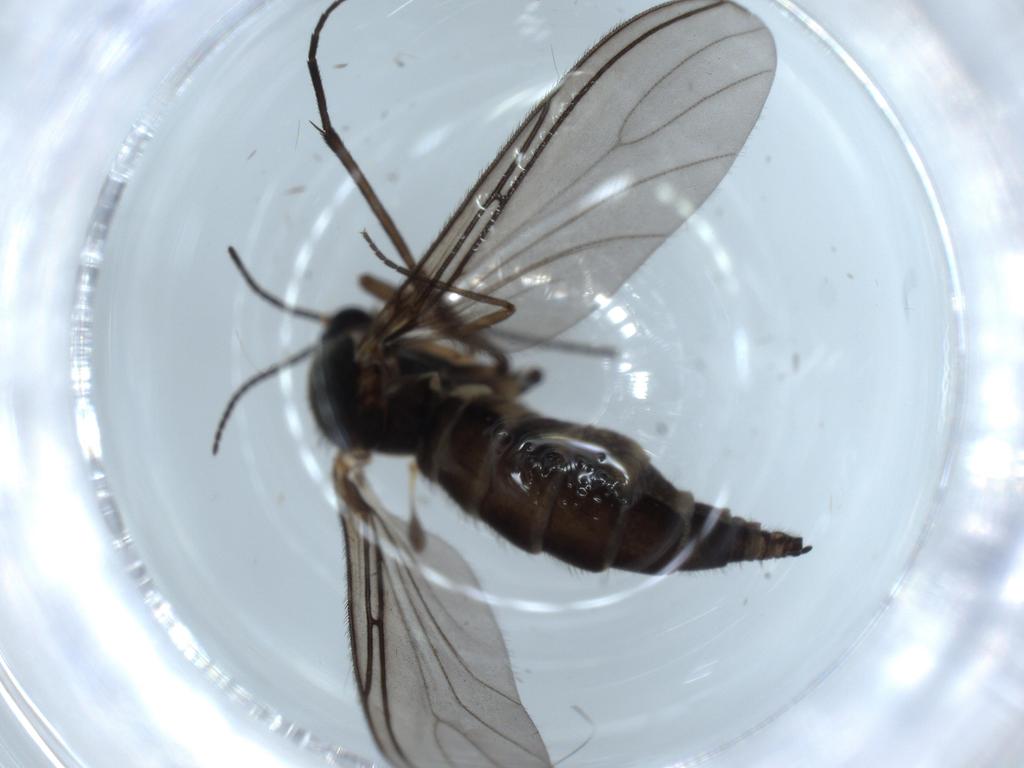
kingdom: Animalia
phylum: Arthropoda
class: Insecta
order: Diptera
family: Sciaridae
